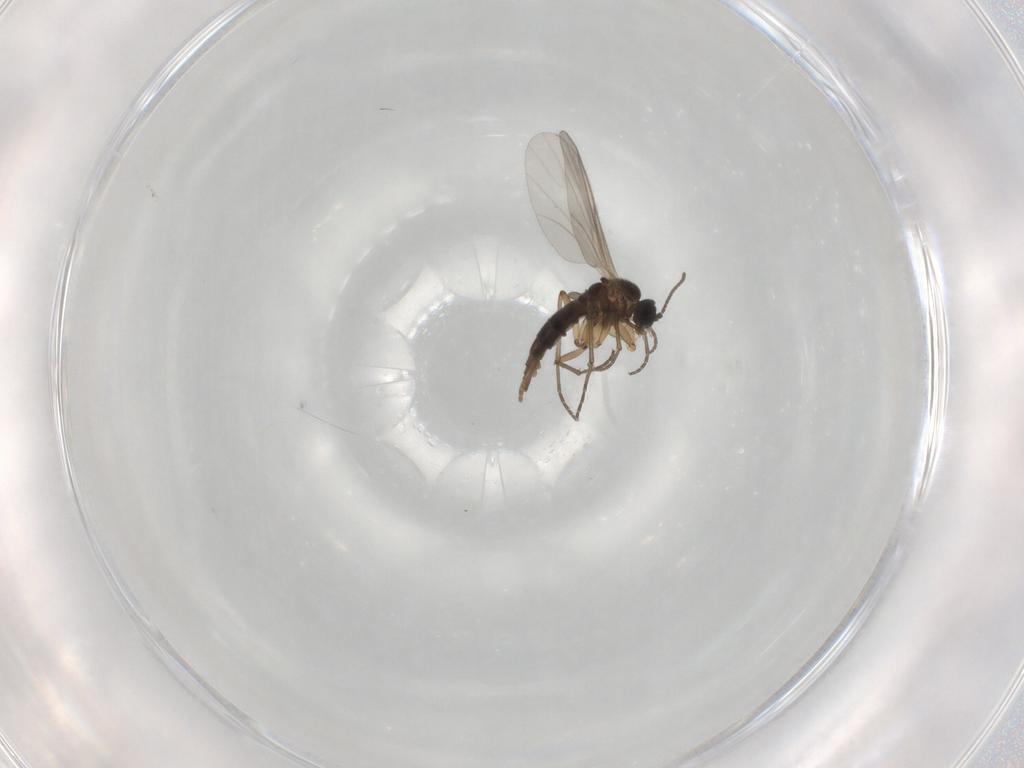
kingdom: Animalia
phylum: Arthropoda
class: Insecta
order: Diptera
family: Sciaridae
